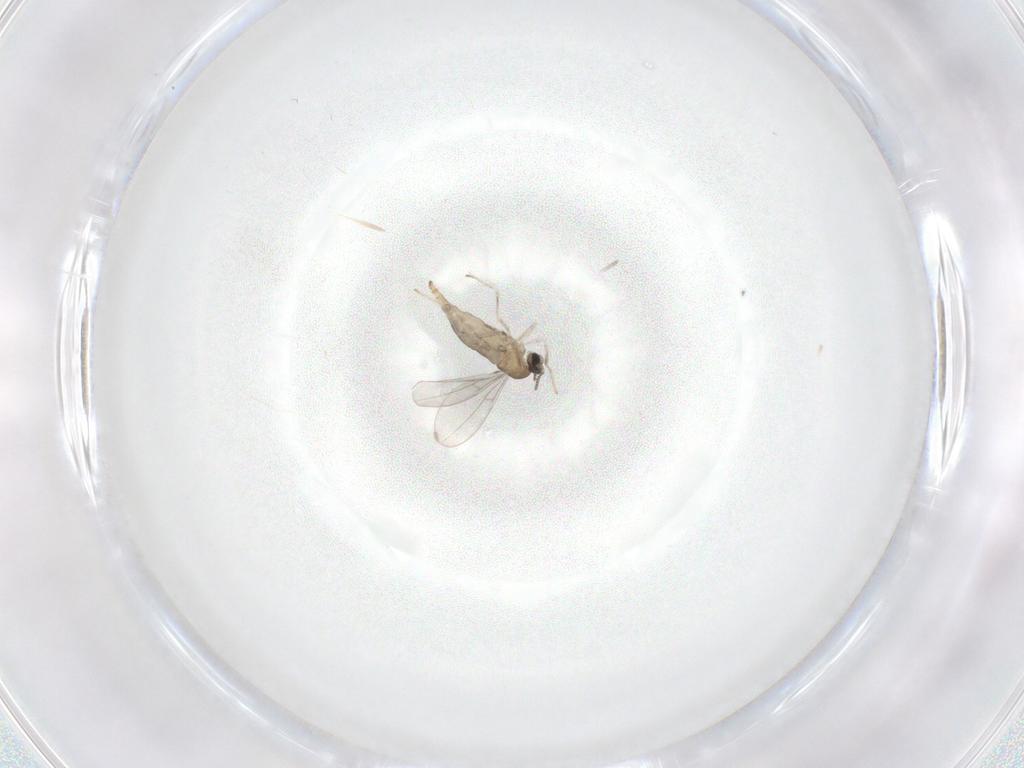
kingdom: Animalia
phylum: Arthropoda
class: Insecta
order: Diptera
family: Cecidomyiidae
